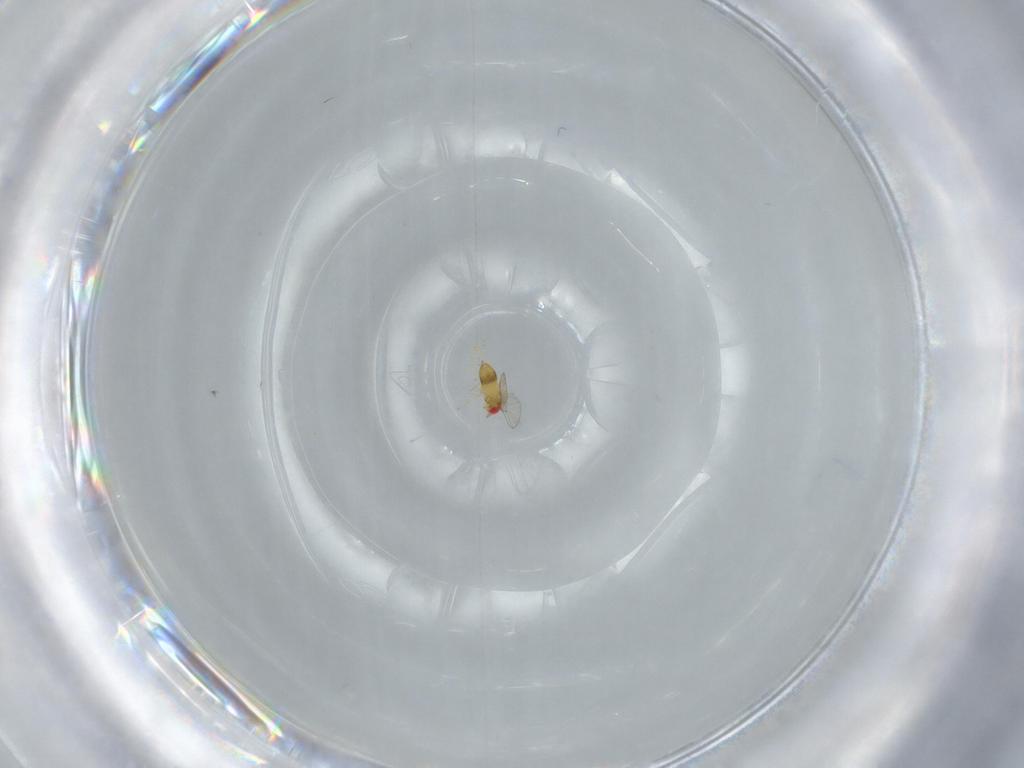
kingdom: Animalia
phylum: Arthropoda
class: Insecta
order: Hymenoptera
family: Trichogrammatidae
